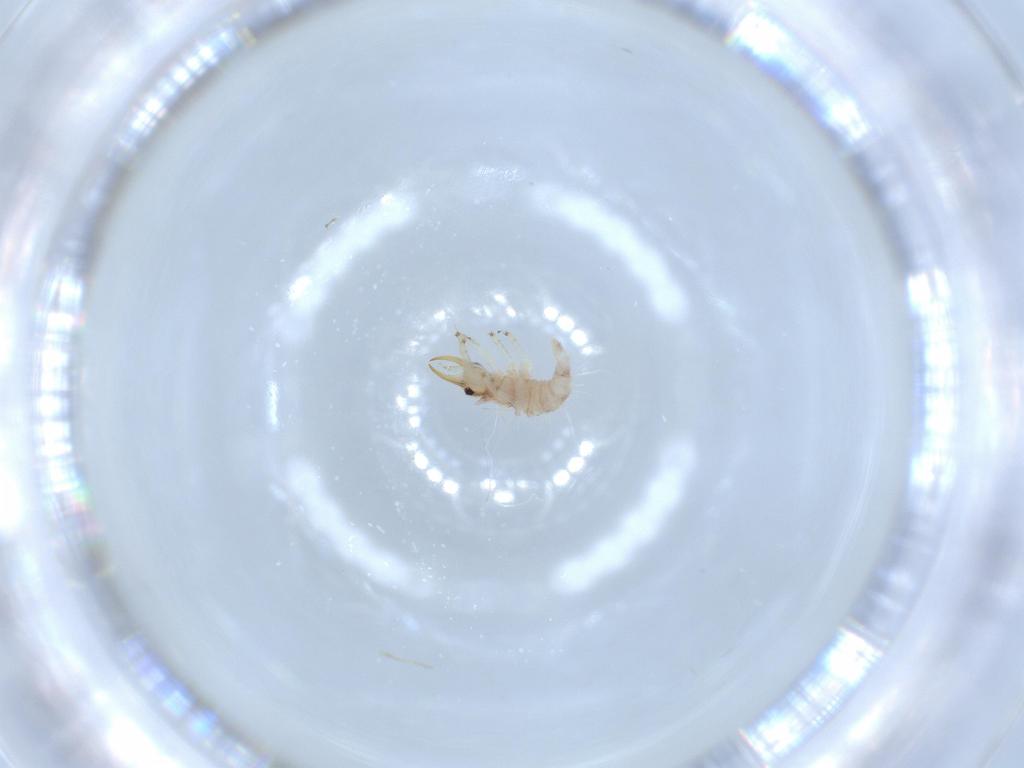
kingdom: Animalia
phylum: Arthropoda
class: Insecta
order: Neuroptera
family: Chrysopidae
